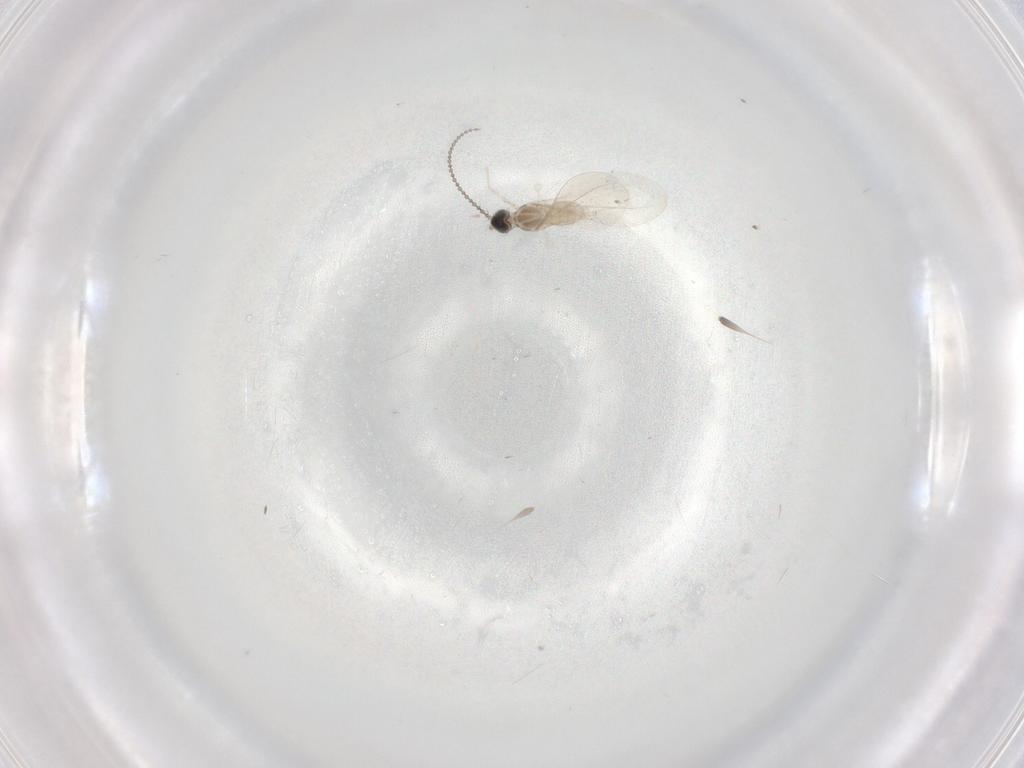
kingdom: Animalia
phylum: Arthropoda
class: Insecta
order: Diptera
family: Cecidomyiidae
